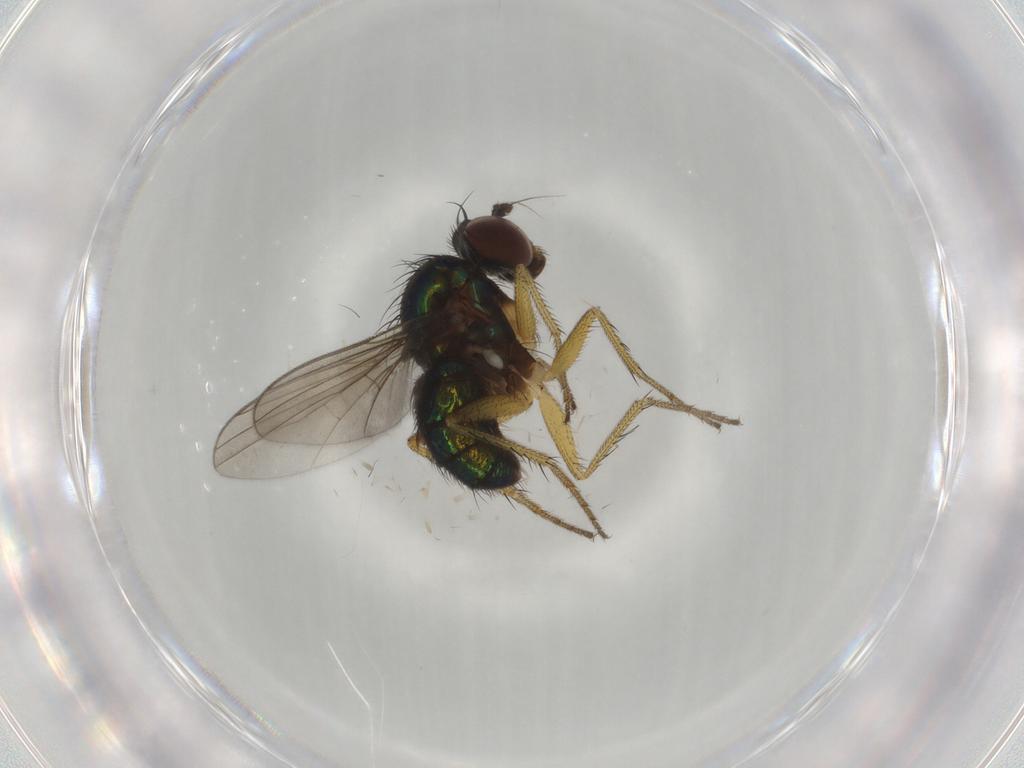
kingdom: Animalia
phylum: Arthropoda
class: Insecta
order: Diptera
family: Dolichopodidae
